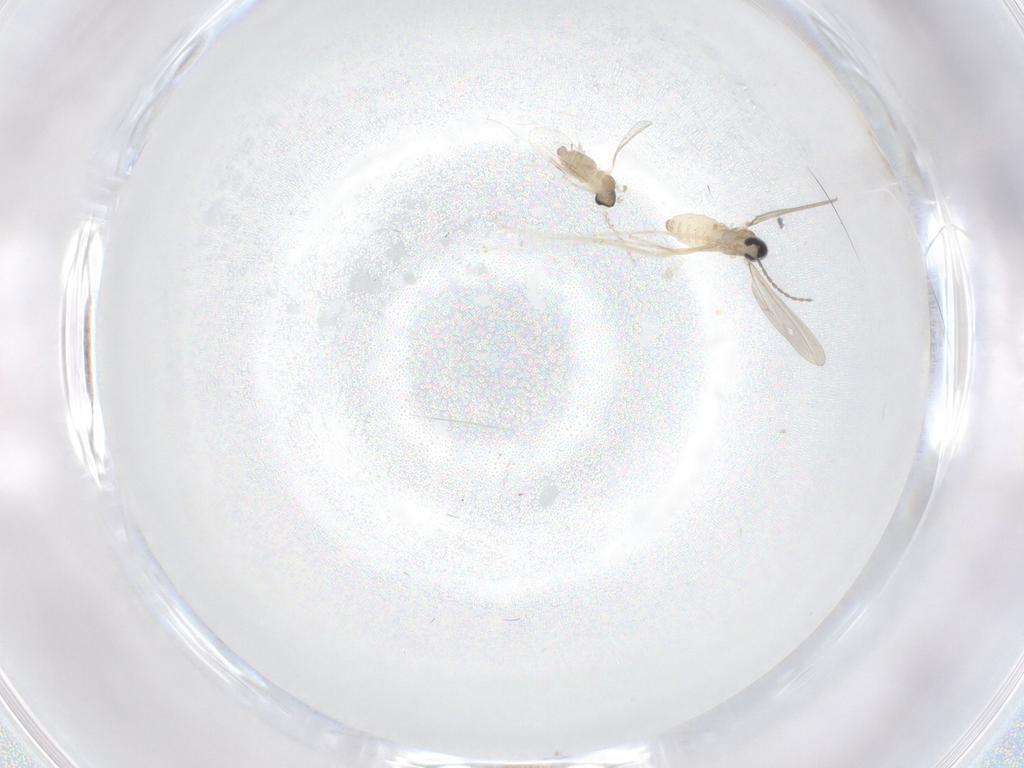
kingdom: Animalia
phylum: Arthropoda
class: Insecta
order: Diptera
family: Cecidomyiidae
